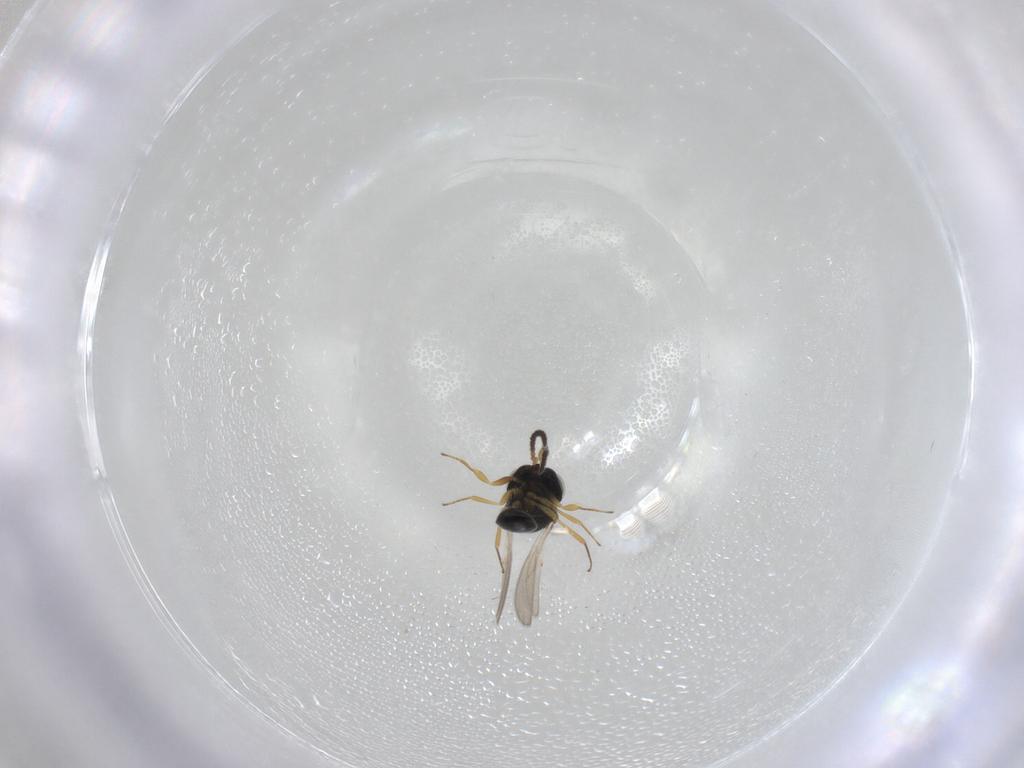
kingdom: Animalia
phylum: Arthropoda
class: Insecta
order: Hymenoptera
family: Scelionidae
